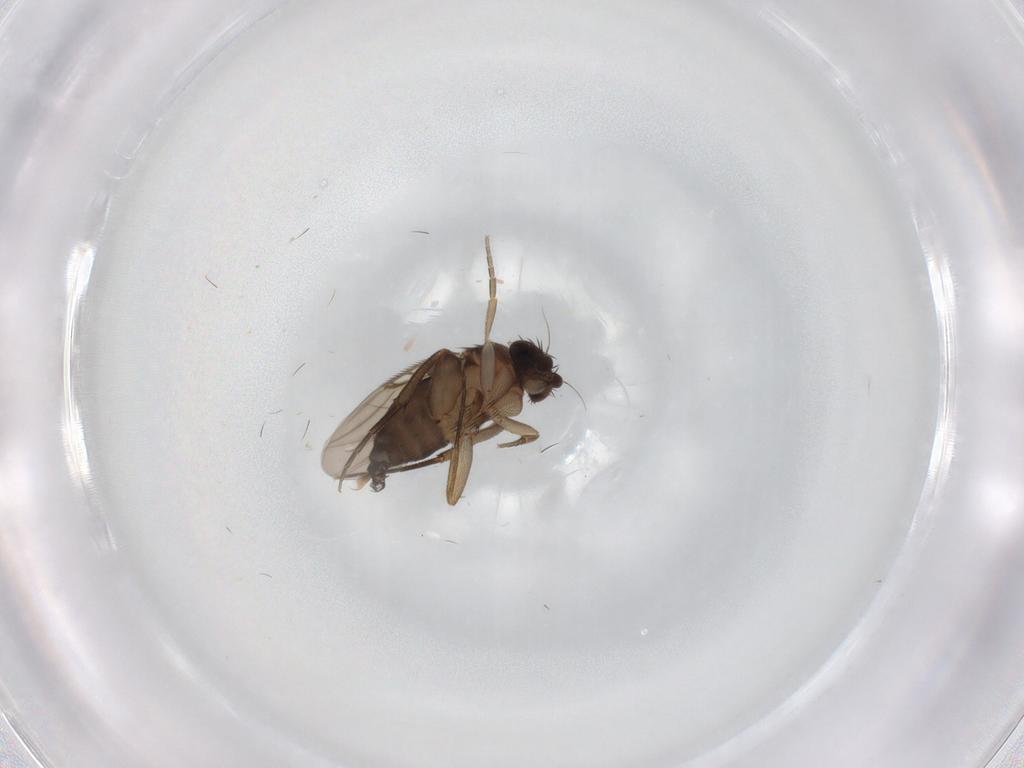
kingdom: Animalia
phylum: Arthropoda
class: Insecta
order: Diptera
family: Phoridae
